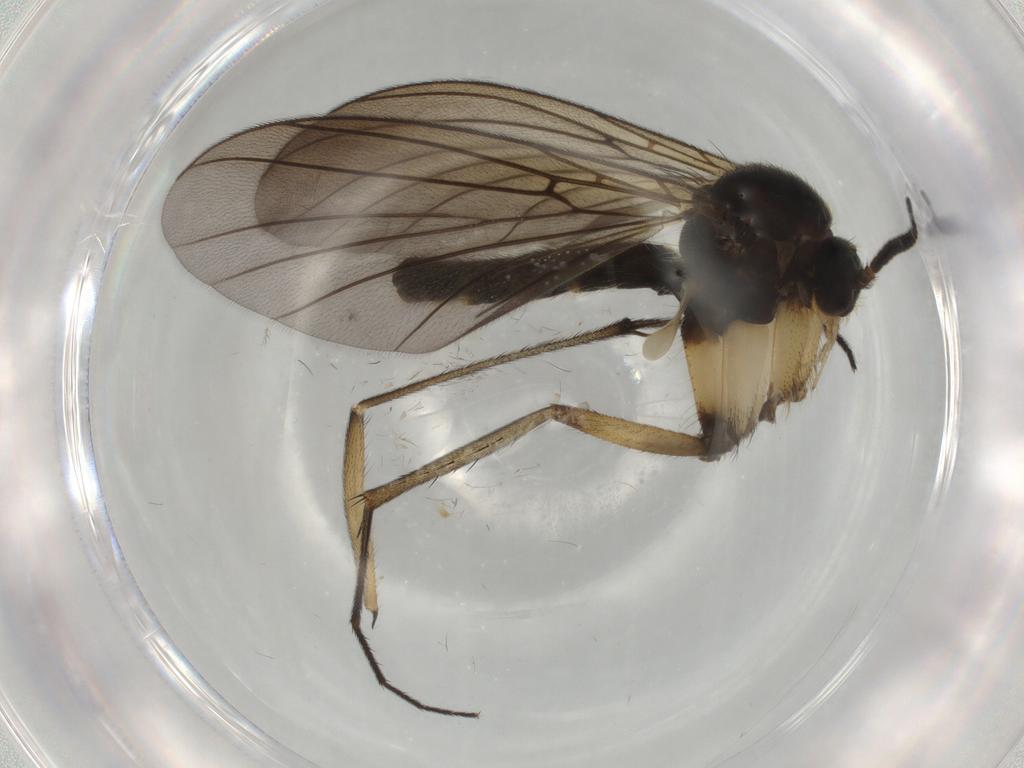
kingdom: Animalia
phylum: Arthropoda
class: Insecta
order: Diptera
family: Mycetophilidae
